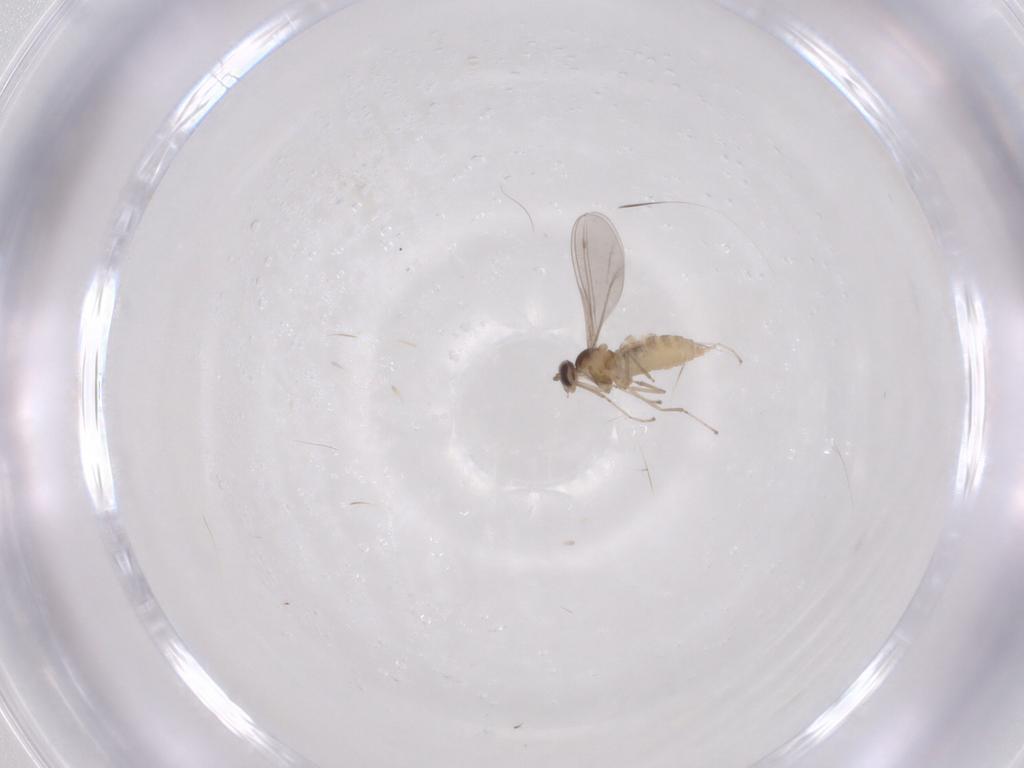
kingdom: Animalia
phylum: Arthropoda
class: Insecta
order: Diptera
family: Cecidomyiidae
